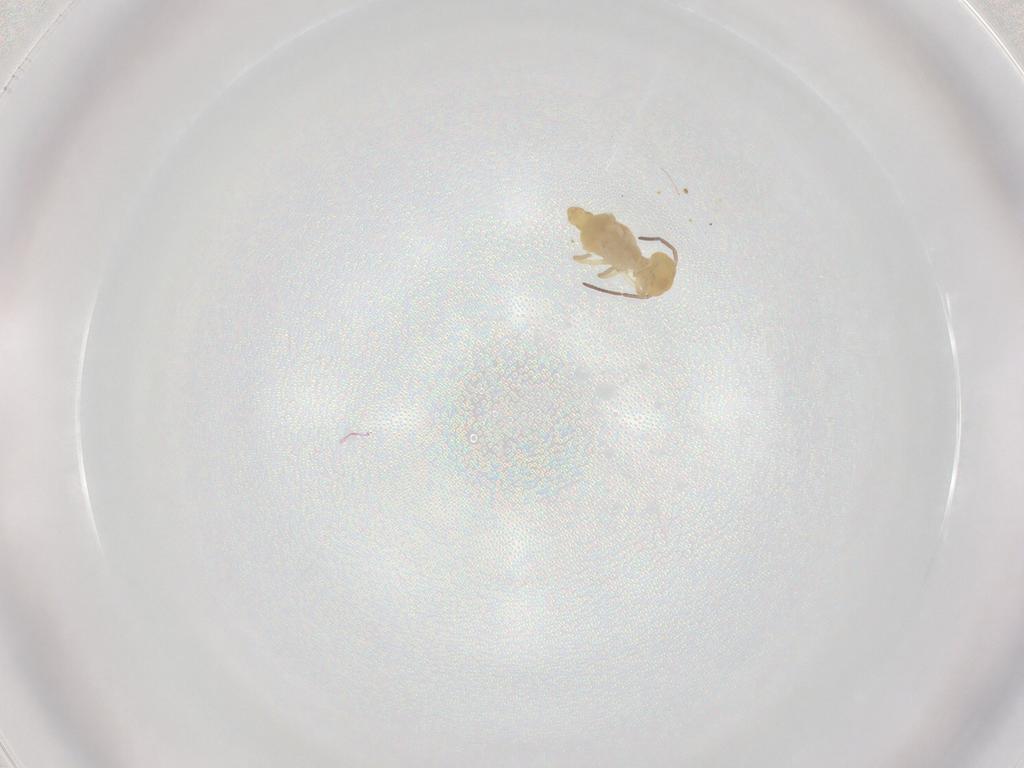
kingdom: Animalia
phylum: Arthropoda
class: Collembola
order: Symphypleona
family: Bourletiellidae
